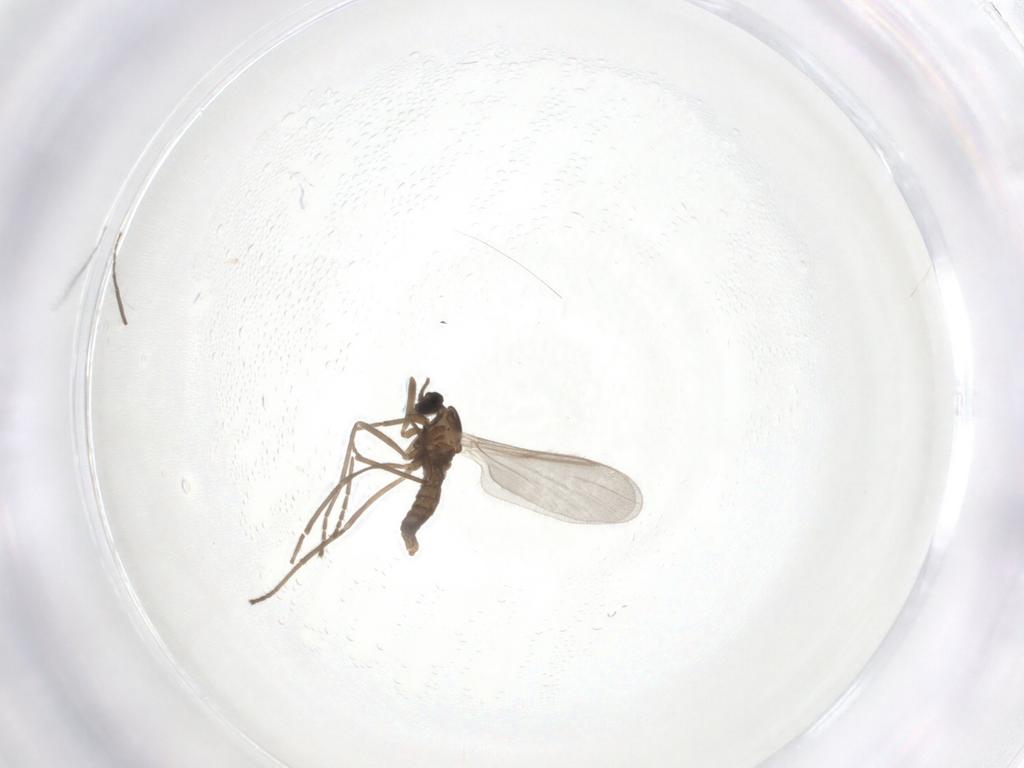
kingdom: Animalia
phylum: Arthropoda
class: Insecta
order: Diptera
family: Cecidomyiidae
